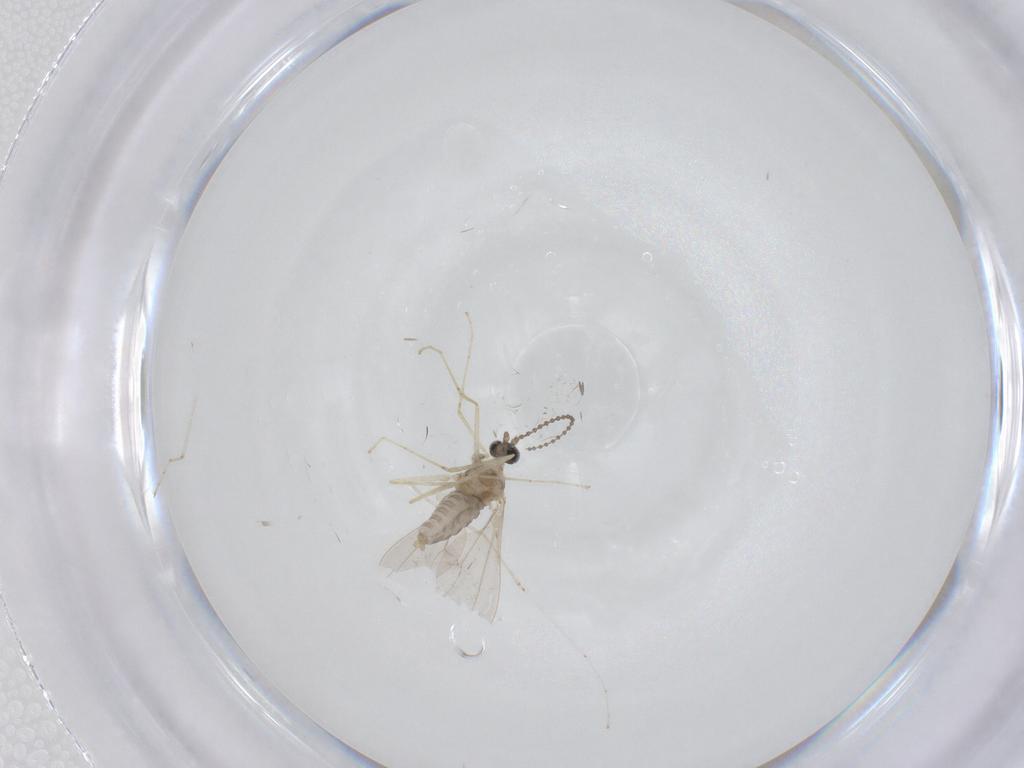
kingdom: Animalia
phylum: Arthropoda
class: Insecta
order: Diptera
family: Cecidomyiidae
